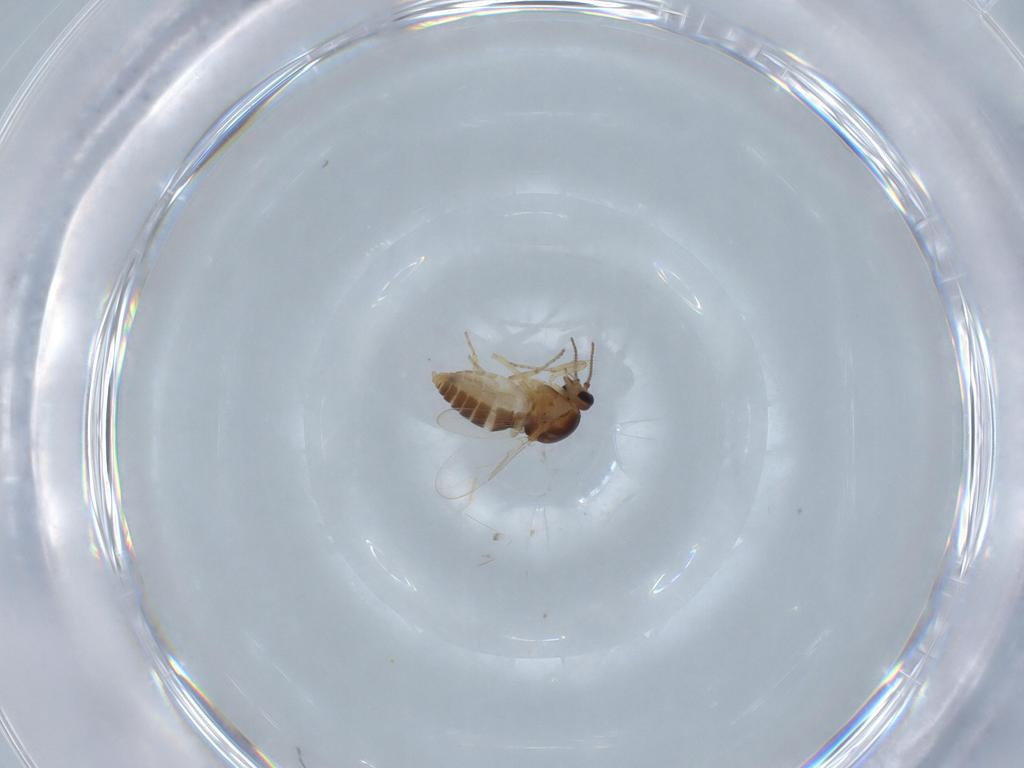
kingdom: Animalia
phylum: Arthropoda
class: Insecta
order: Diptera
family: Ceratopogonidae
